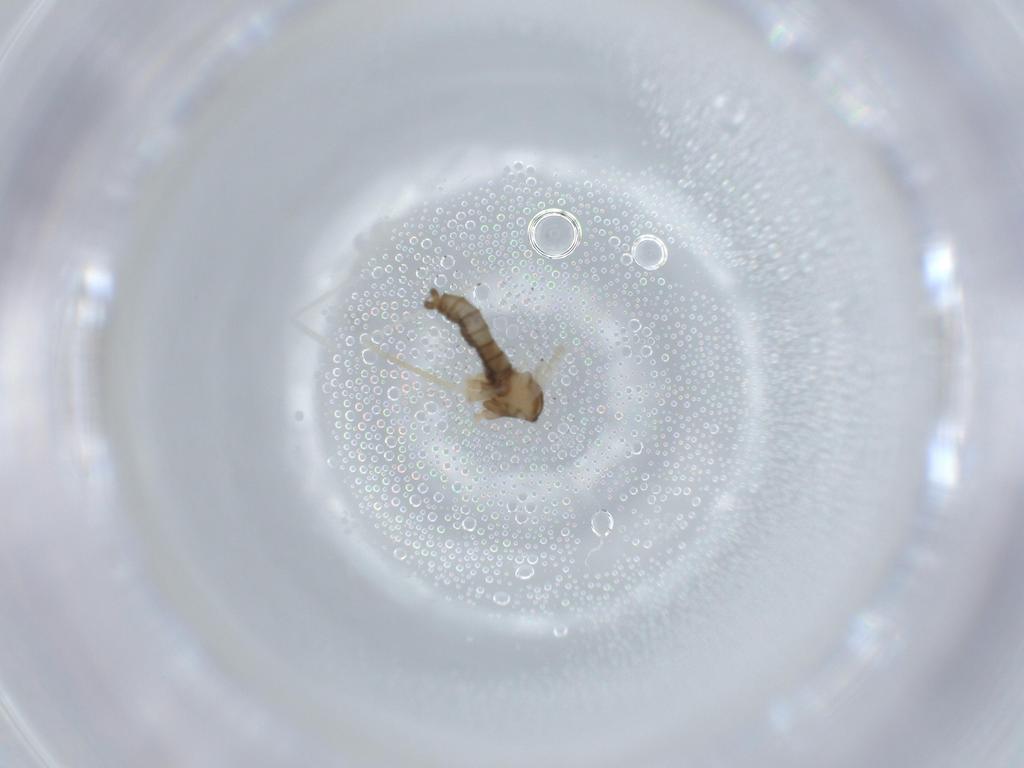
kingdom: Animalia
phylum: Arthropoda
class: Insecta
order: Diptera
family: Cecidomyiidae
